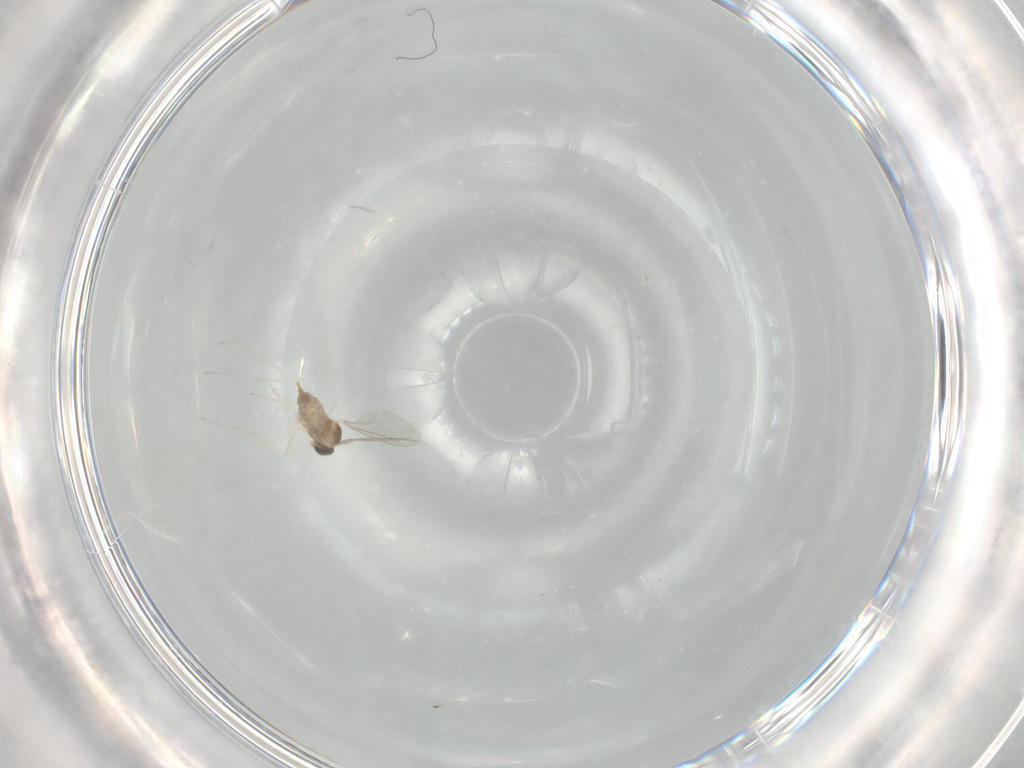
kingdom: Animalia
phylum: Arthropoda
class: Insecta
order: Diptera
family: Cecidomyiidae
